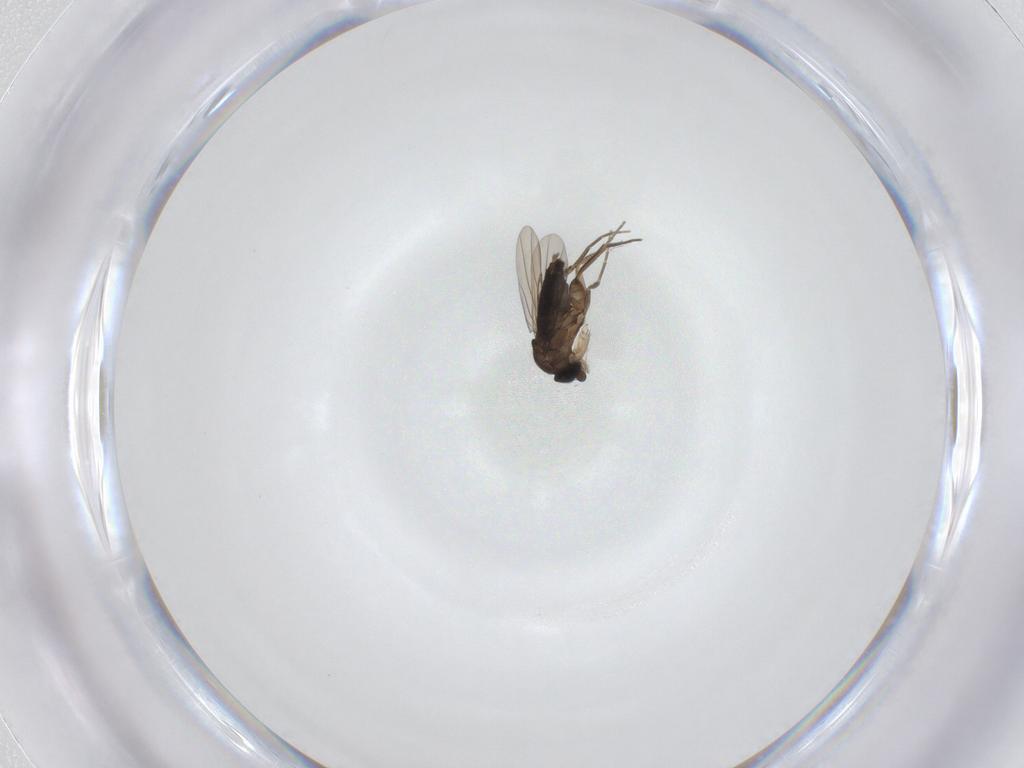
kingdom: Animalia
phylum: Arthropoda
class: Insecta
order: Diptera
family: Phoridae
